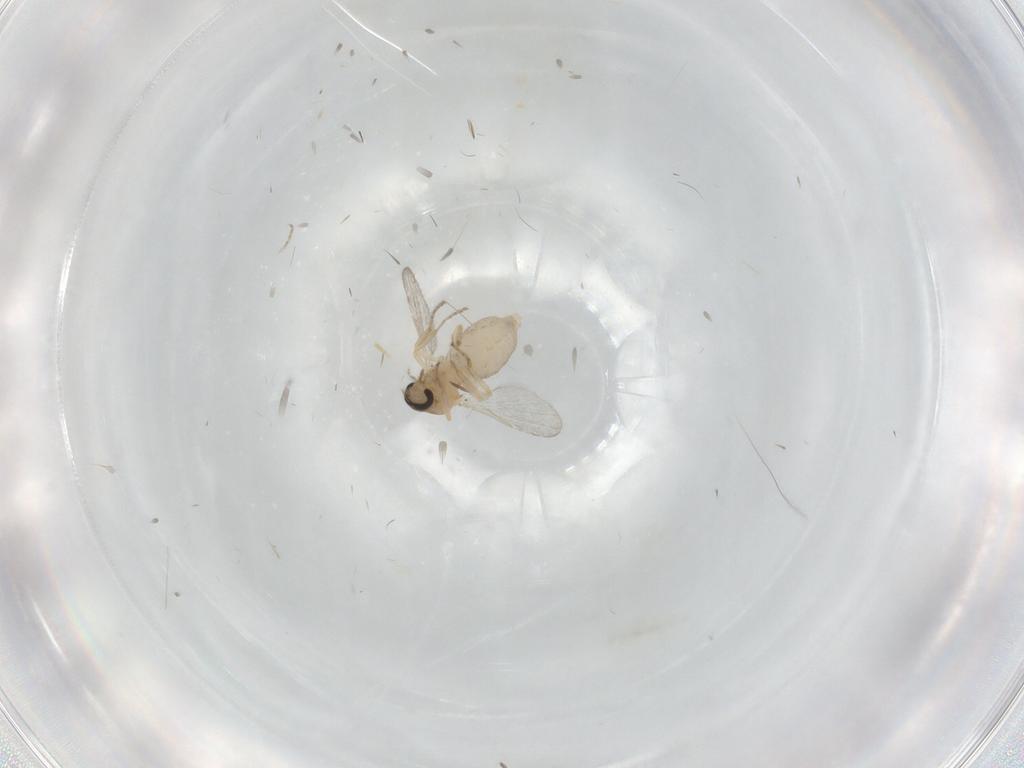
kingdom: Animalia
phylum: Arthropoda
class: Insecta
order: Diptera
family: Ceratopogonidae
